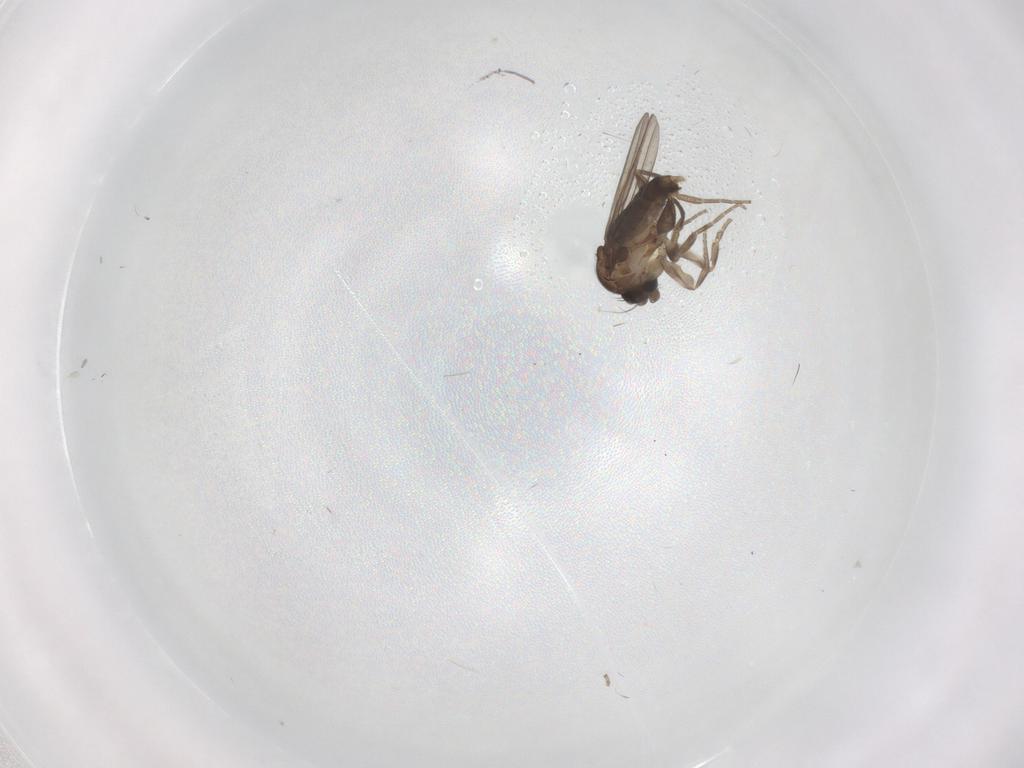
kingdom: Animalia
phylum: Arthropoda
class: Insecta
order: Diptera
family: Phoridae
